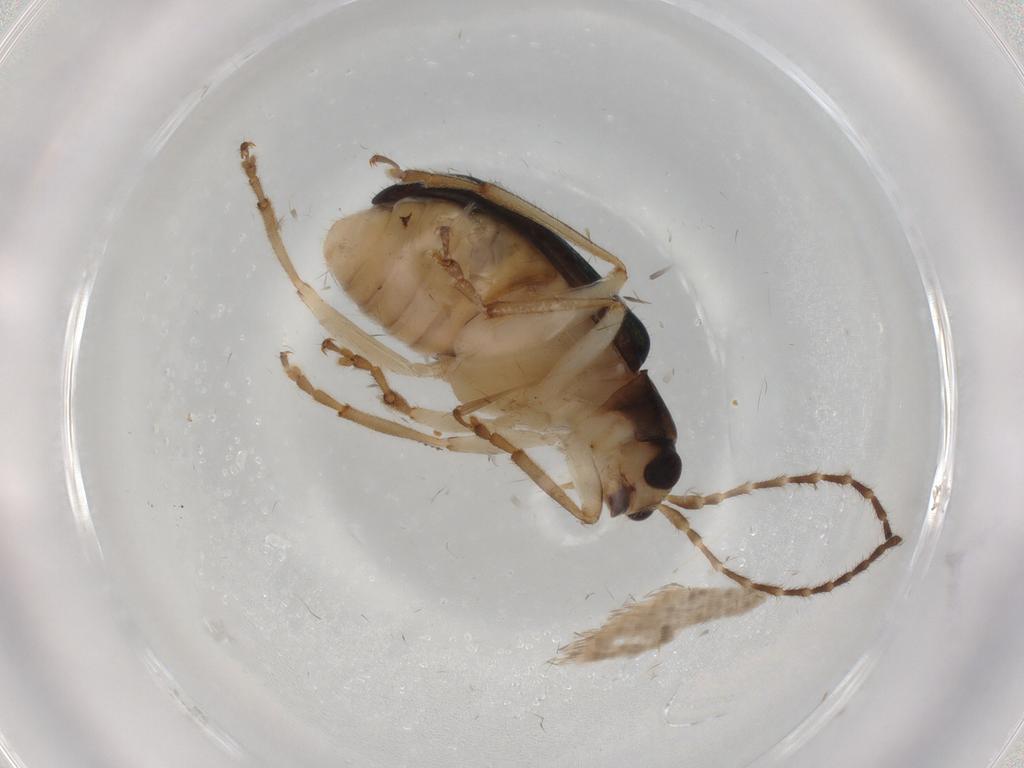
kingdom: Animalia
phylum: Arthropoda
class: Insecta
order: Coleoptera
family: Chrysomelidae
